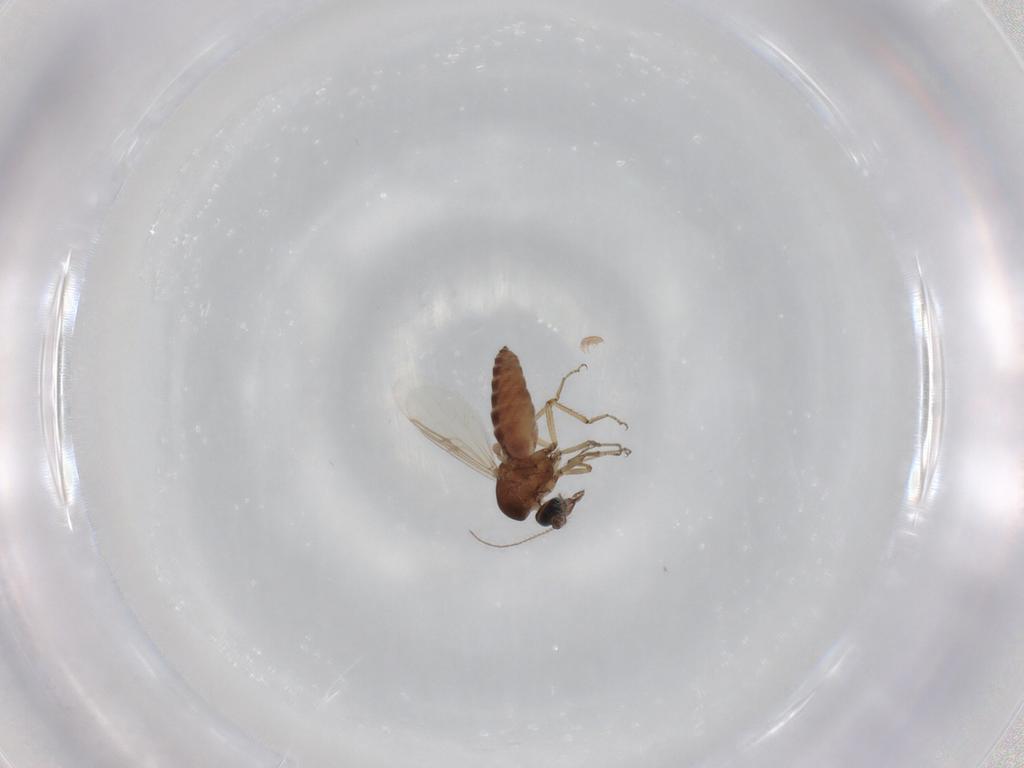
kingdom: Animalia
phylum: Arthropoda
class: Insecta
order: Diptera
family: Ceratopogonidae
